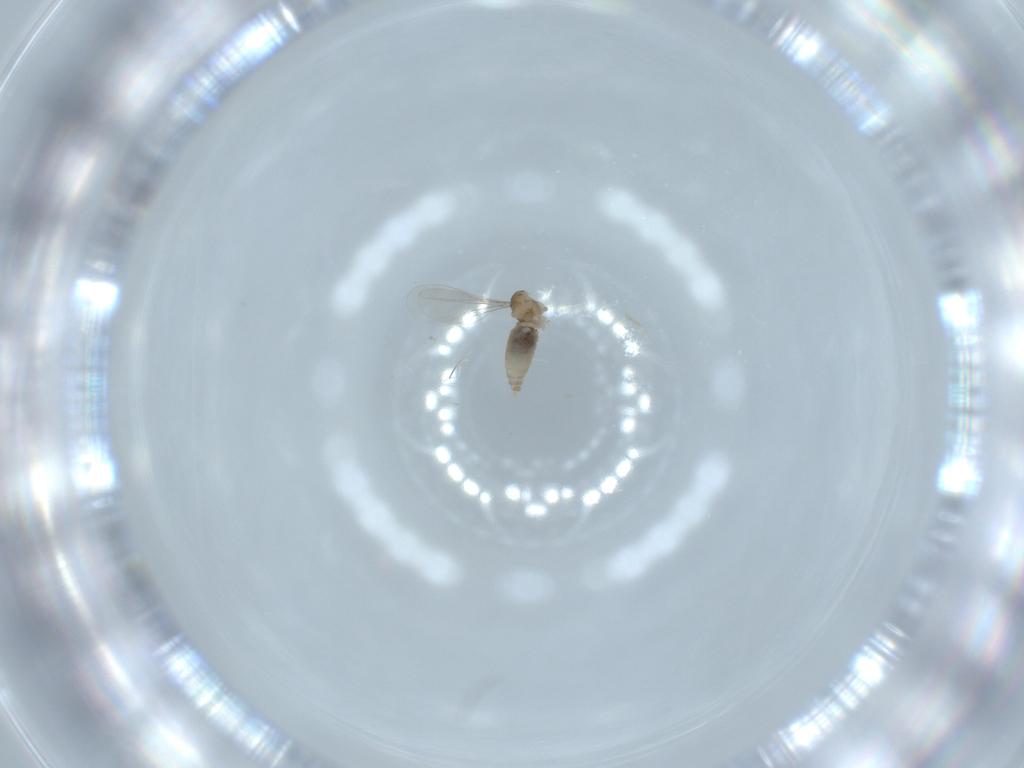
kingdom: Animalia
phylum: Arthropoda
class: Insecta
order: Diptera
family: Cecidomyiidae
